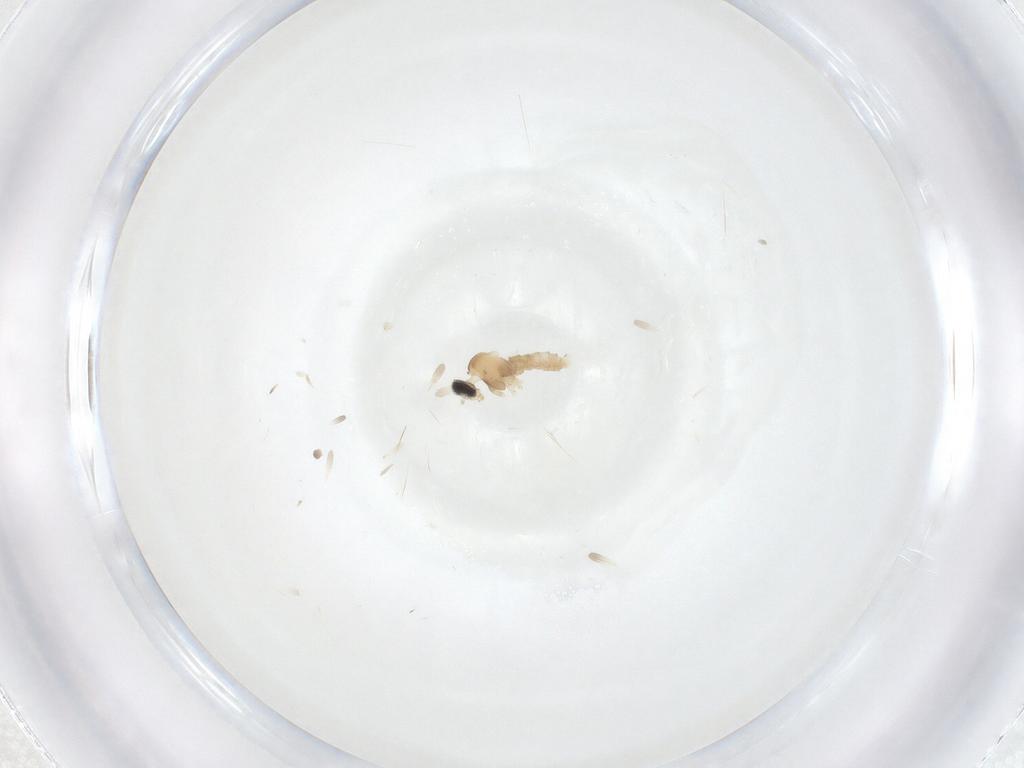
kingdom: Animalia
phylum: Arthropoda
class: Insecta
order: Diptera
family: Cecidomyiidae
